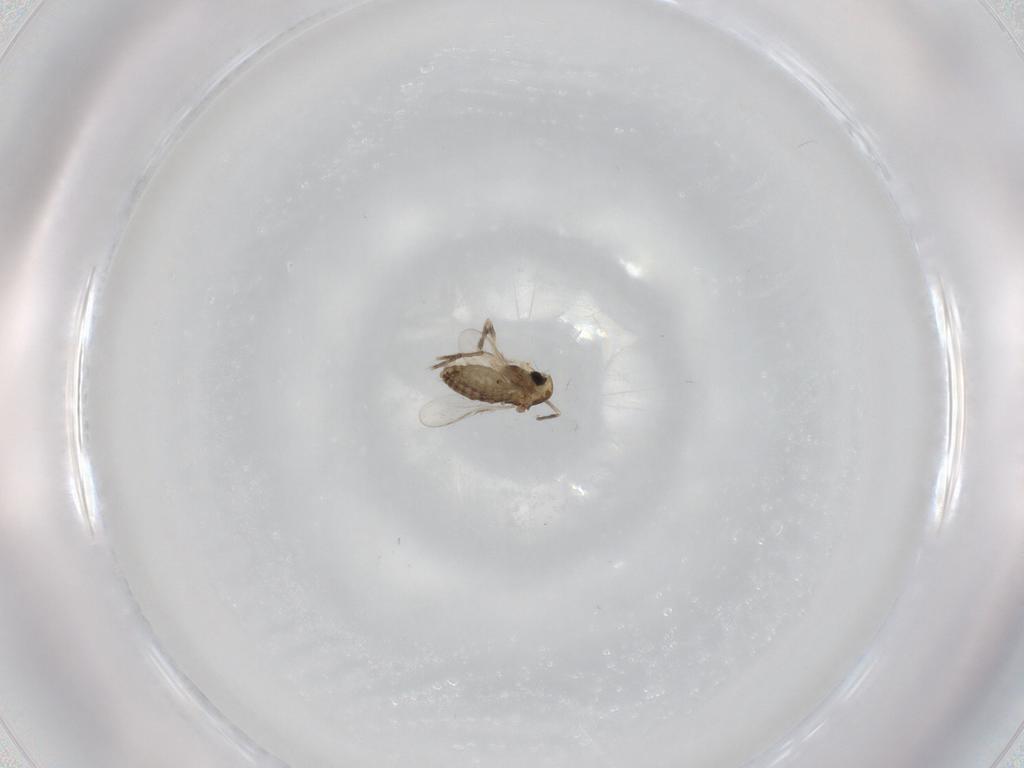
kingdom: Animalia
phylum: Arthropoda
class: Insecta
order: Diptera
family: Chironomidae
